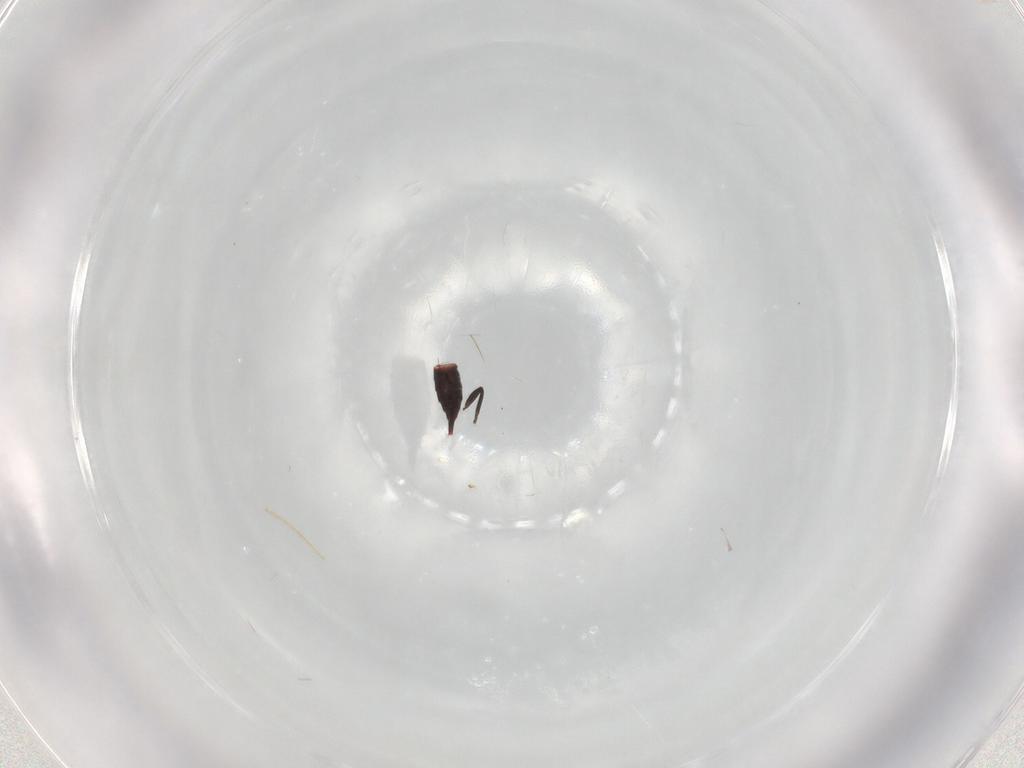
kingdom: Animalia
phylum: Arthropoda
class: Insecta
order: Thysanoptera
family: Phlaeothripidae
